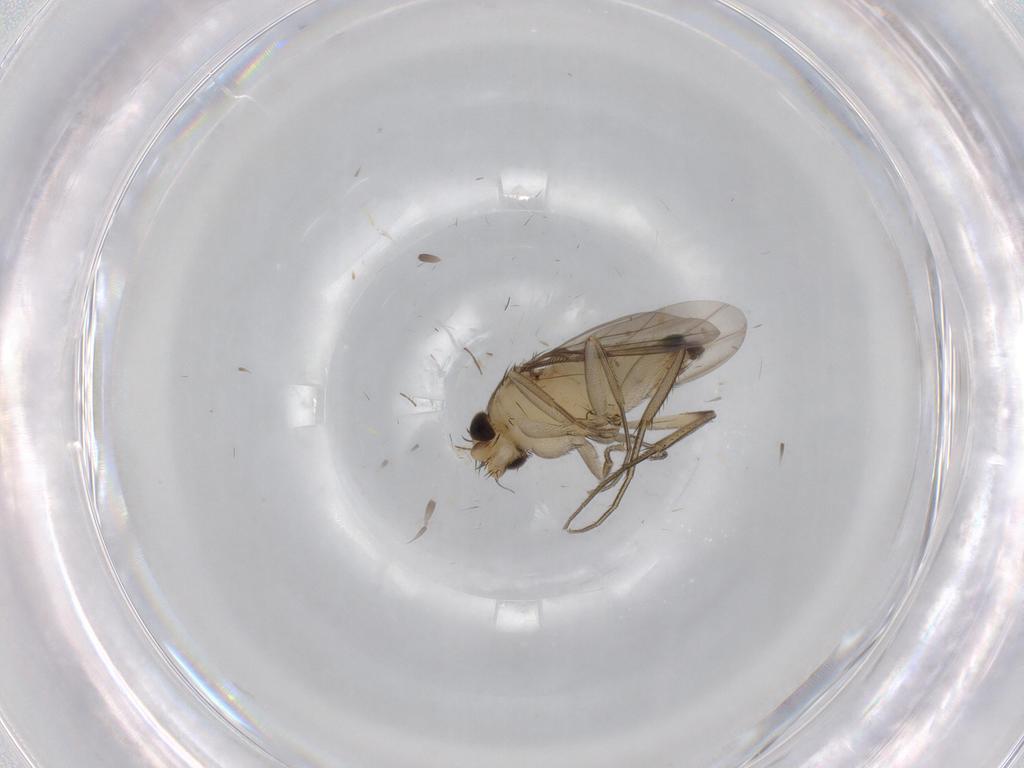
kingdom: Animalia
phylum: Arthropoda
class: Insecta
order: Diptera
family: Phoridae
